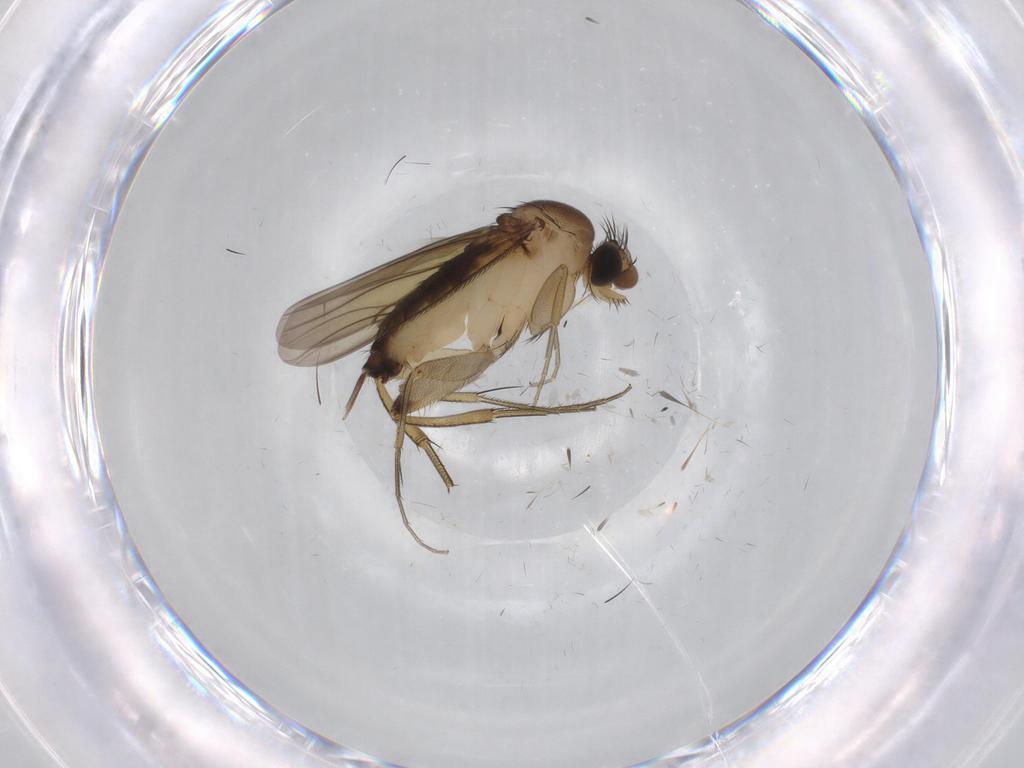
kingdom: Animalia
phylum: Arthropoda
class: Insecta
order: Diptera
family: Phoridae
